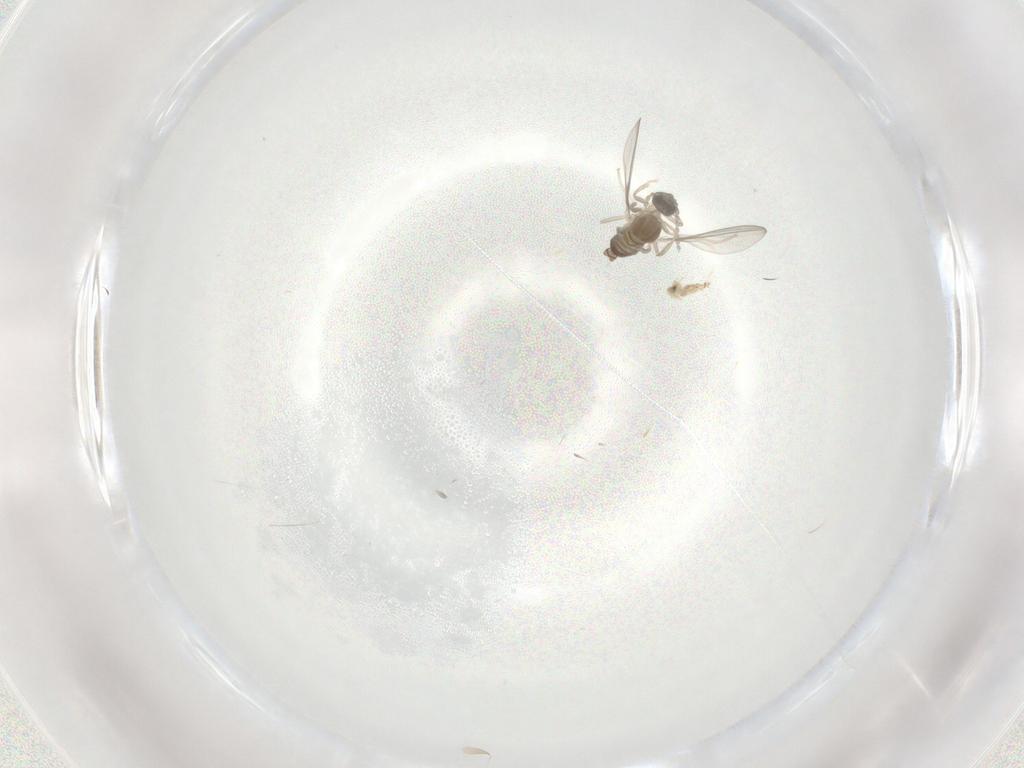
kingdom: Animalia
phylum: Arthropoda
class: Insecta
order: Diptera
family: Cecidomyiidae
